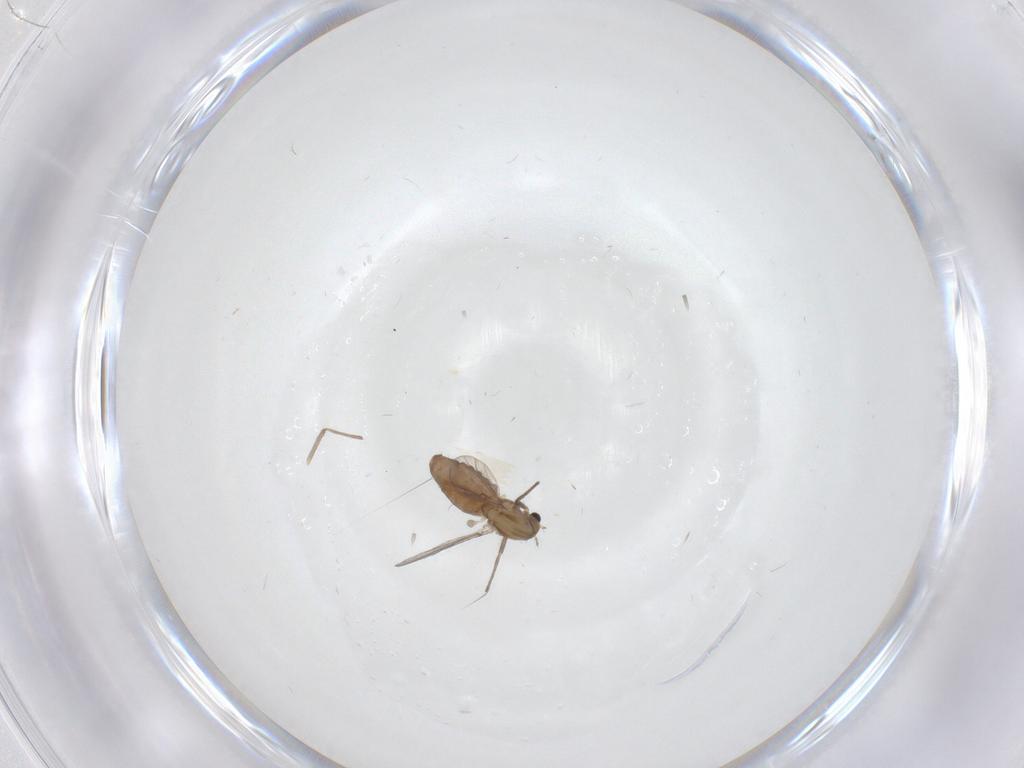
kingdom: Animalia
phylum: Arthropoda
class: Insecta
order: Diptera
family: Chironomidae
